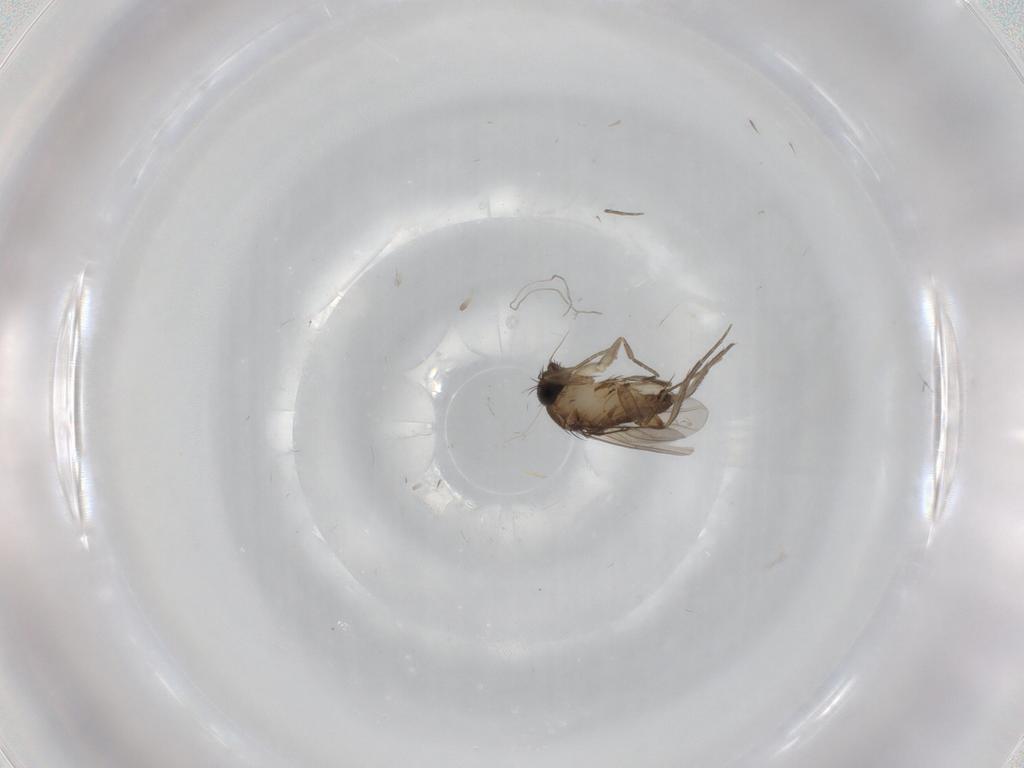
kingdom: Animalia
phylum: Arthropoda
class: Insecta
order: Diptera
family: Phoridae
